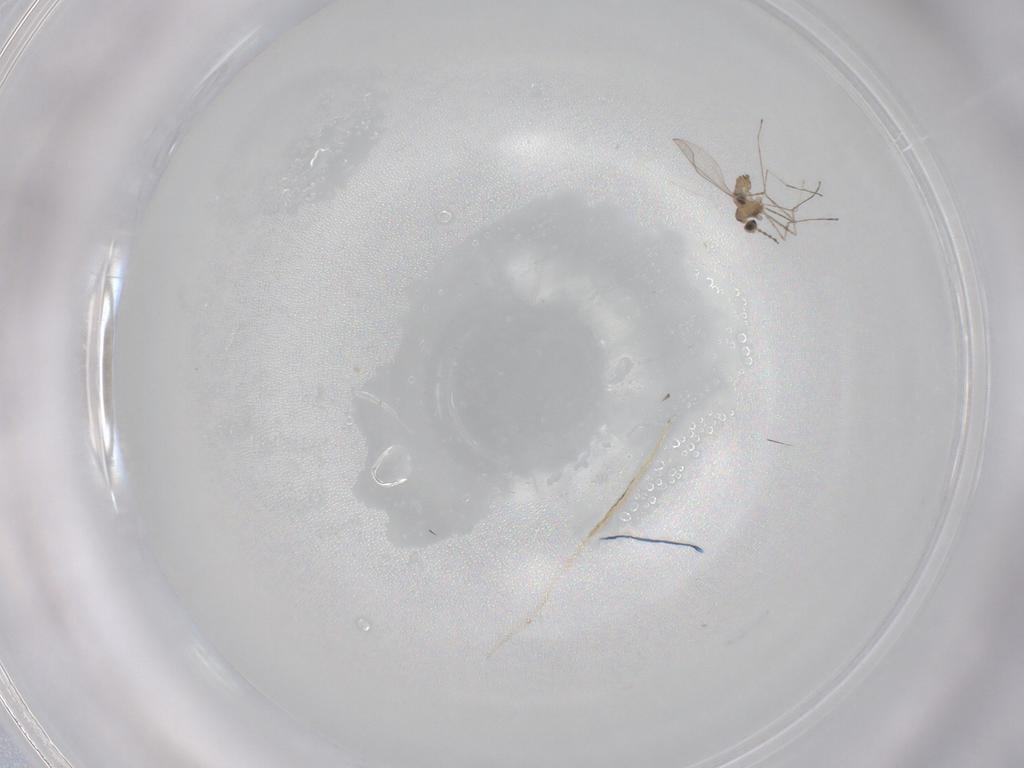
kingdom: Animalia
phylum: Arthropoda
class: Insecta
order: Diptera
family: Cecidomyiidae
